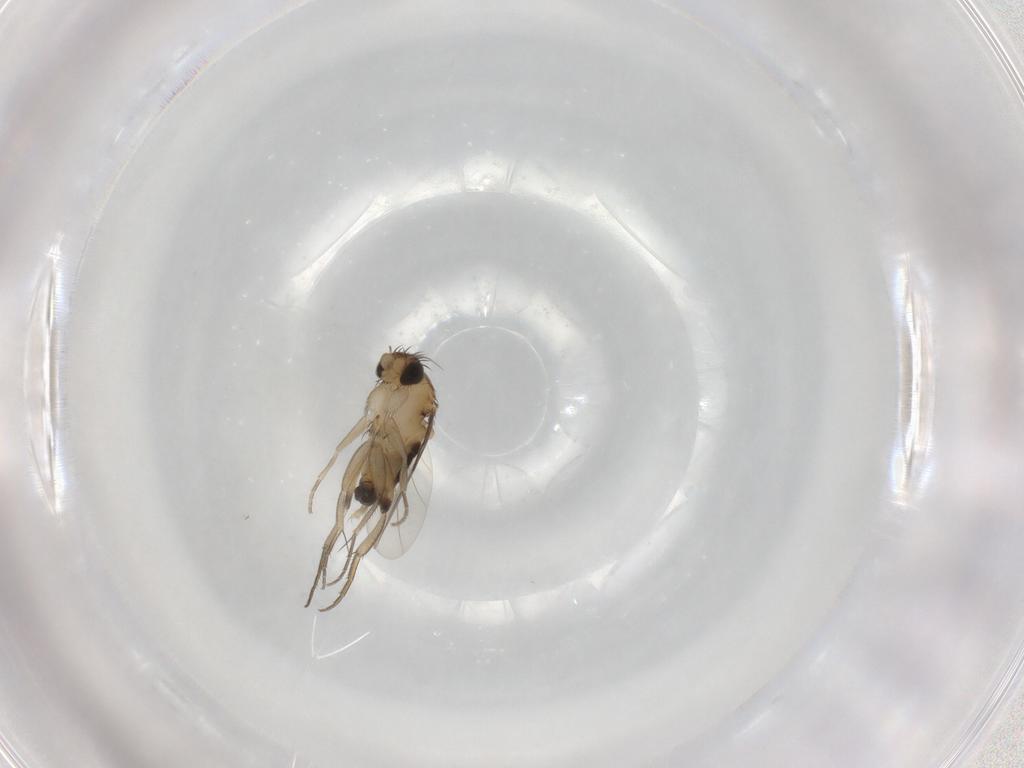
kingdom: Animalia
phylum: Arthropoda
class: Insecta
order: Diptera
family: Phoridae
